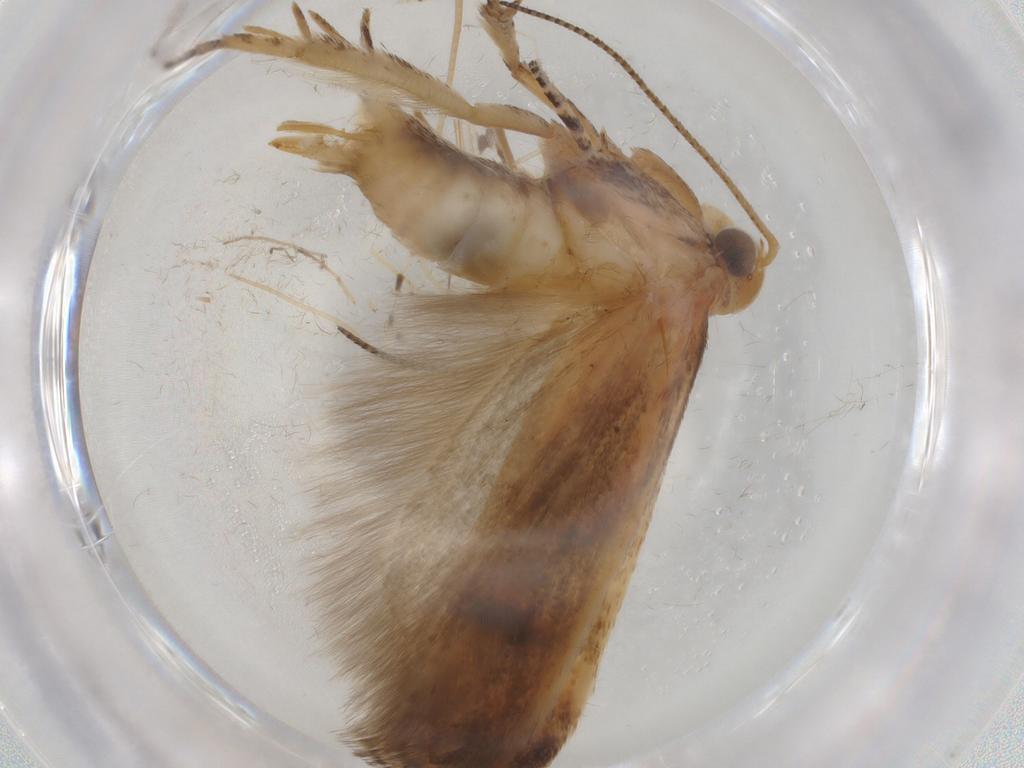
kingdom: Animalia
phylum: Arthropoda
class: Insecta
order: Lepidoptera
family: Gelechiidae
